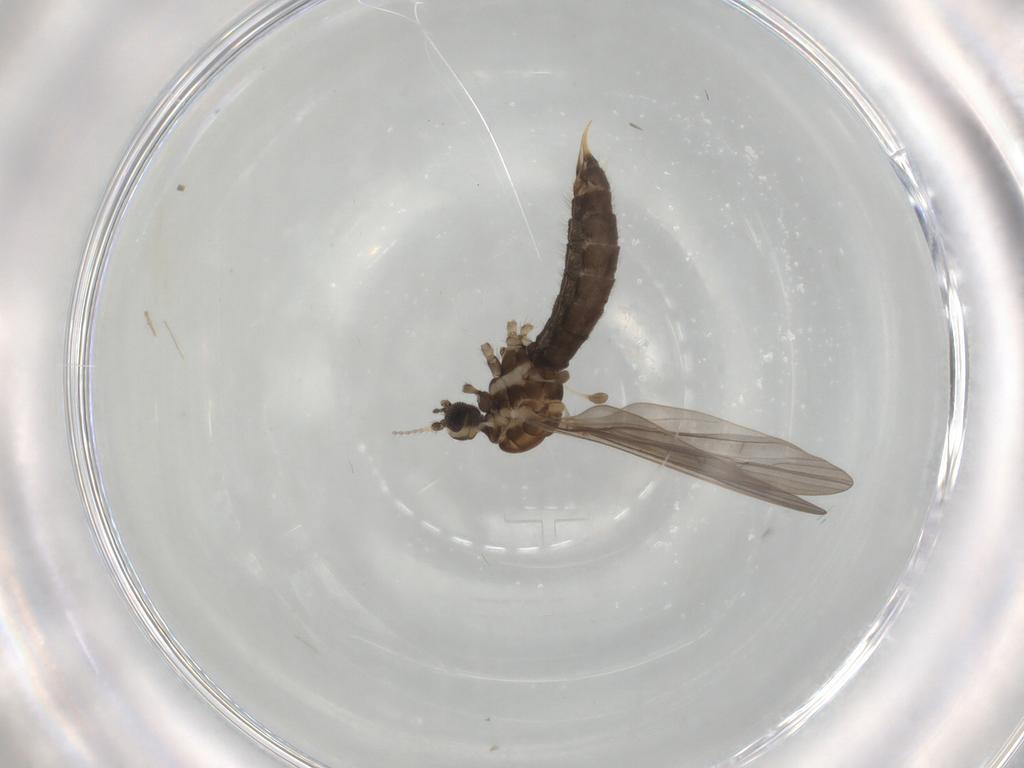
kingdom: Animalia
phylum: Arthropoda
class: Insecta
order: Diptera
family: Limoniidae
